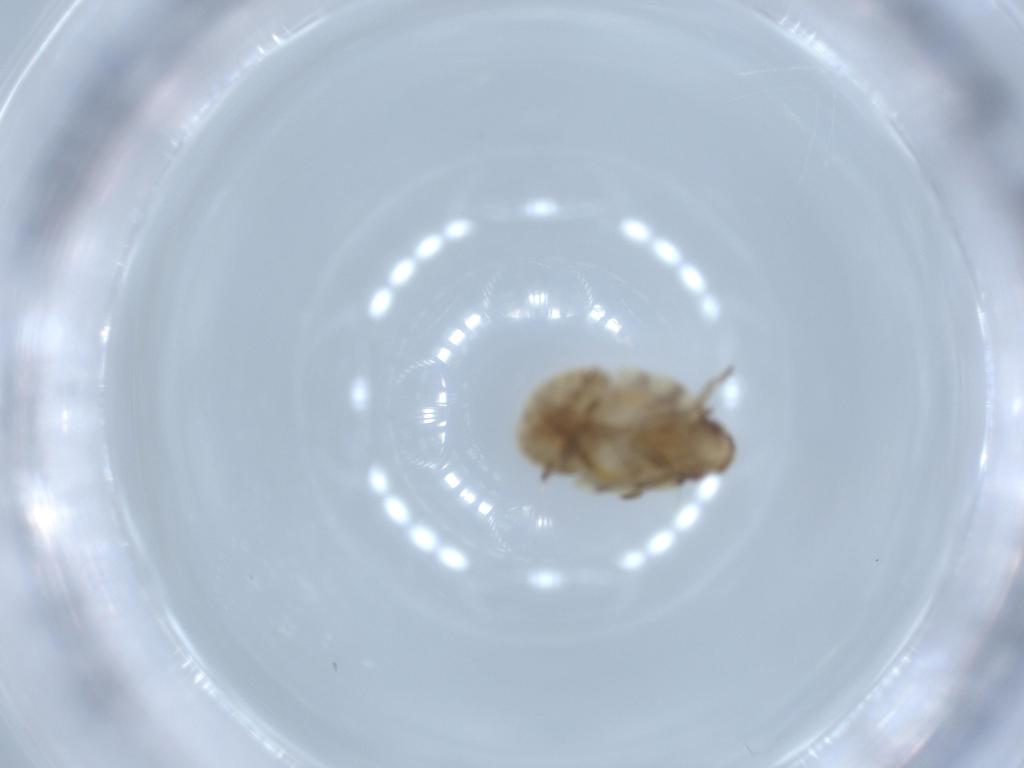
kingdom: Animalia
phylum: Arthropoda
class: Insecta
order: Hemiptera
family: Flatidae
